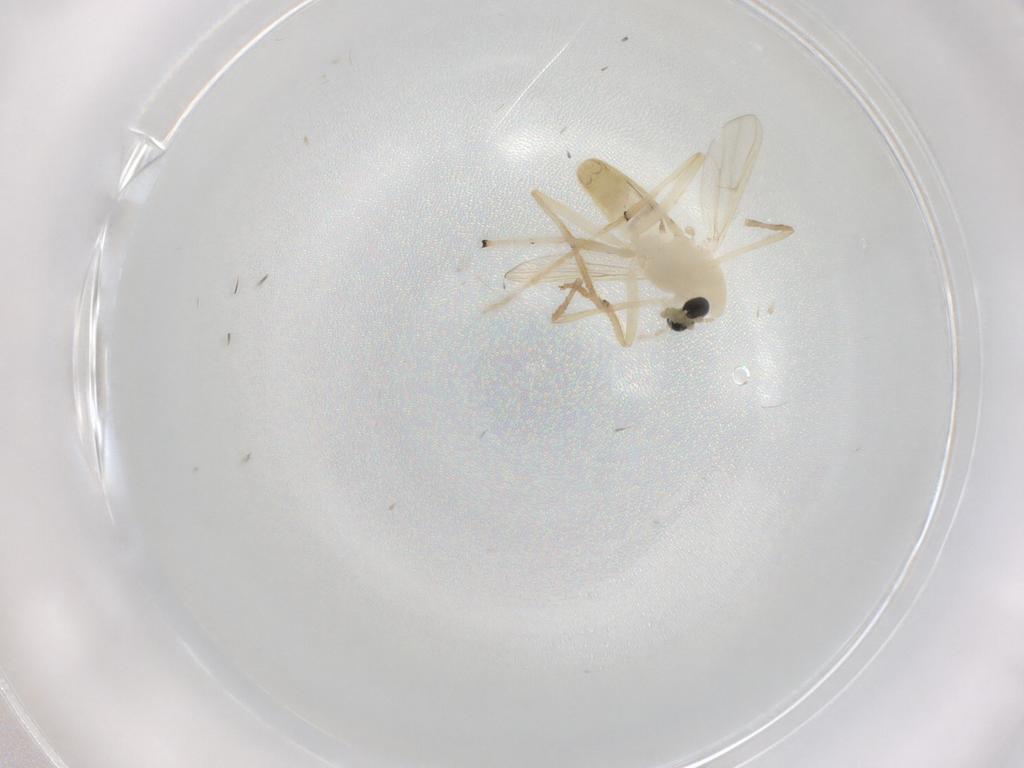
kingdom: Animalia
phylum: Arthropoda
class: Insecta
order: Diptera
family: Chironomidae
